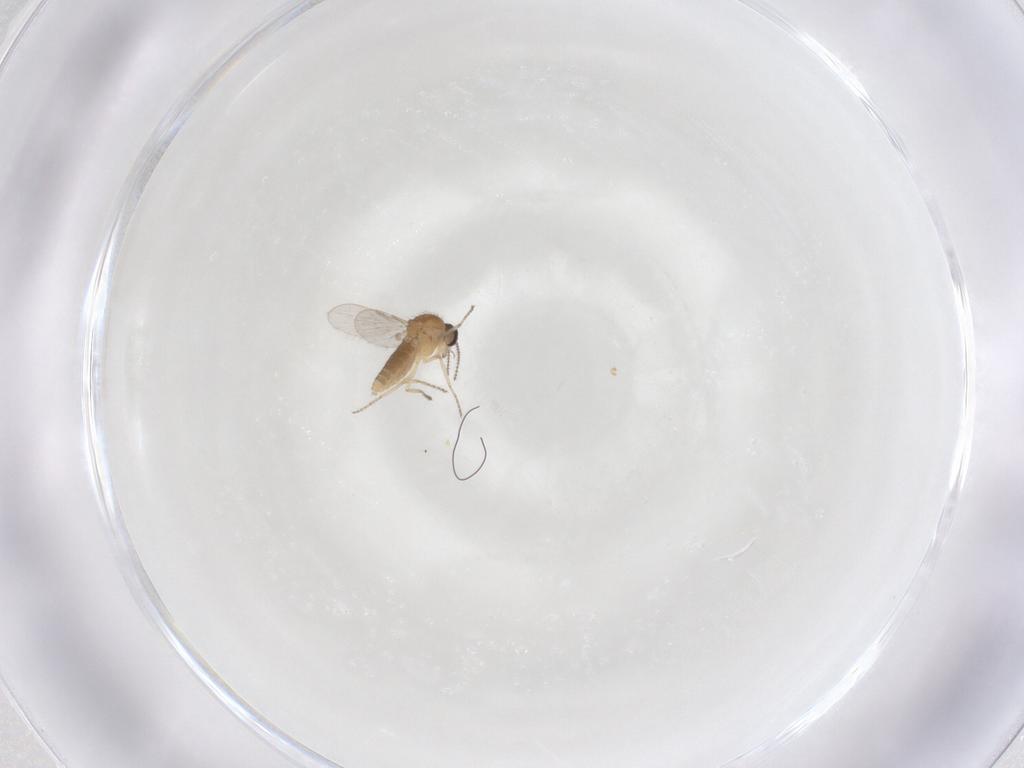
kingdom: Animalia
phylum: Arthropoda
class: Insecta
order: Diptera
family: Ceratopogonidae
